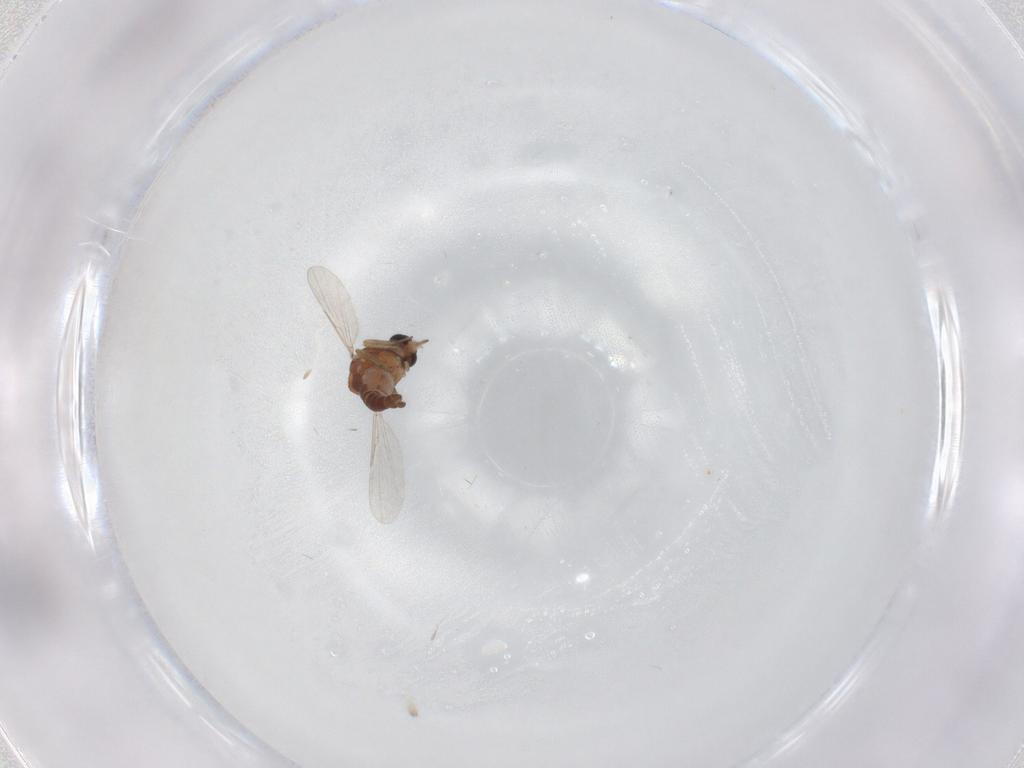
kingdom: Animalia
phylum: Arthropoda
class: Insecta
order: Diptera
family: Ceratopogonidae
